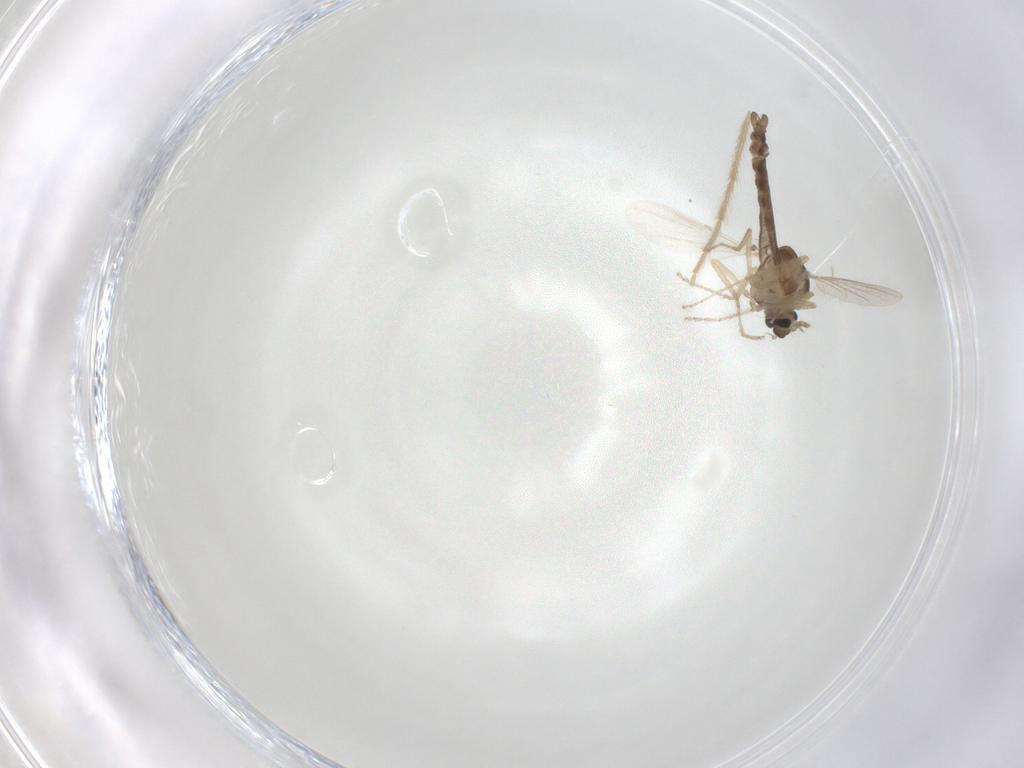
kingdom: Animalia
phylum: Arthropoda
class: Insecta
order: Diptera
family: Ceratopogonidae
